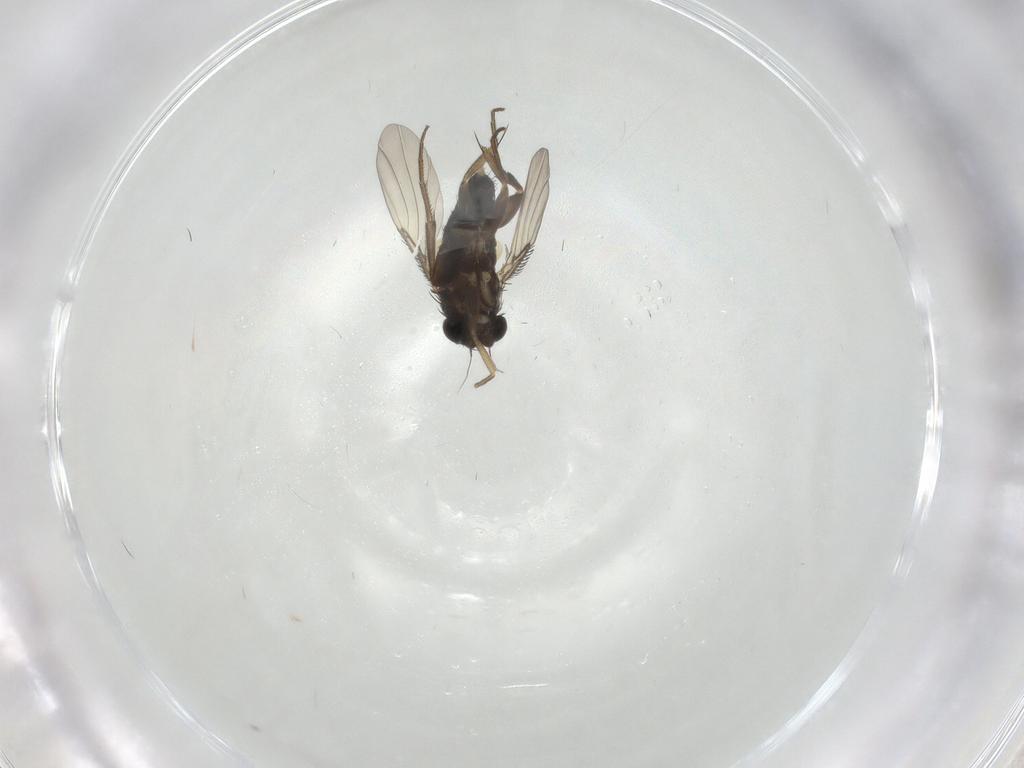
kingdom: Animalia
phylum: Arthropoda
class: Insecta
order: Diptera
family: Phoridae
